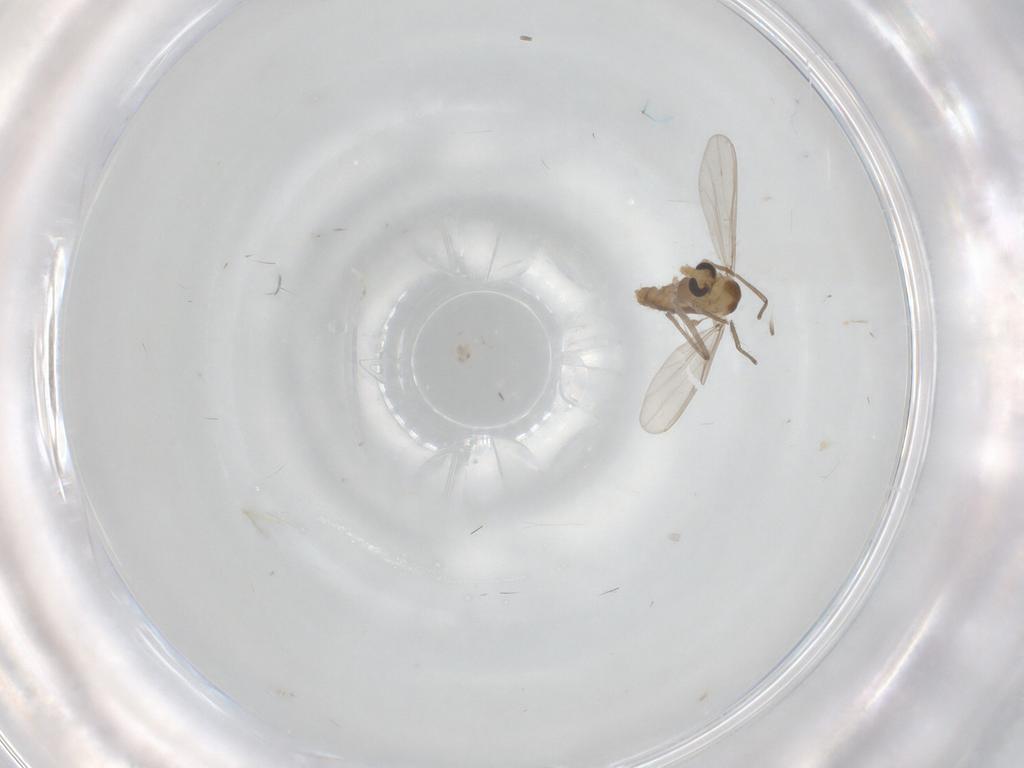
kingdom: Animalia
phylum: Arthropoda
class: Insecta
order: Diptera
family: Chironomidae
